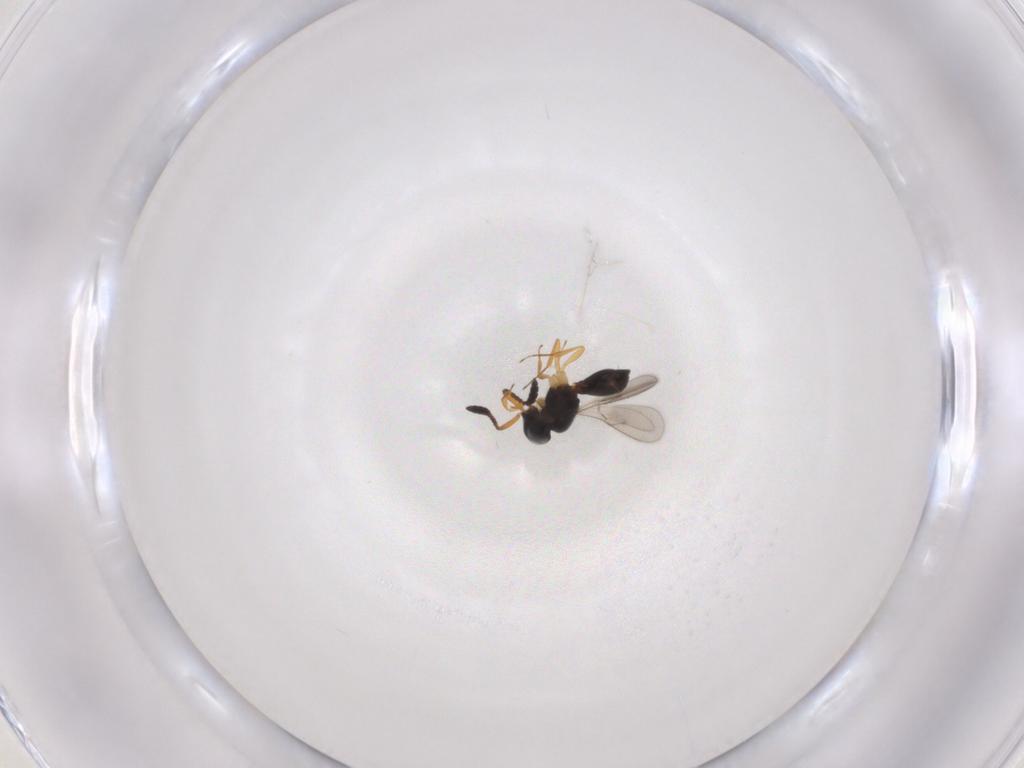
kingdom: Animalia
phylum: Arthropoda
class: Insecta
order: Hymenoptera
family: Scelionidae
